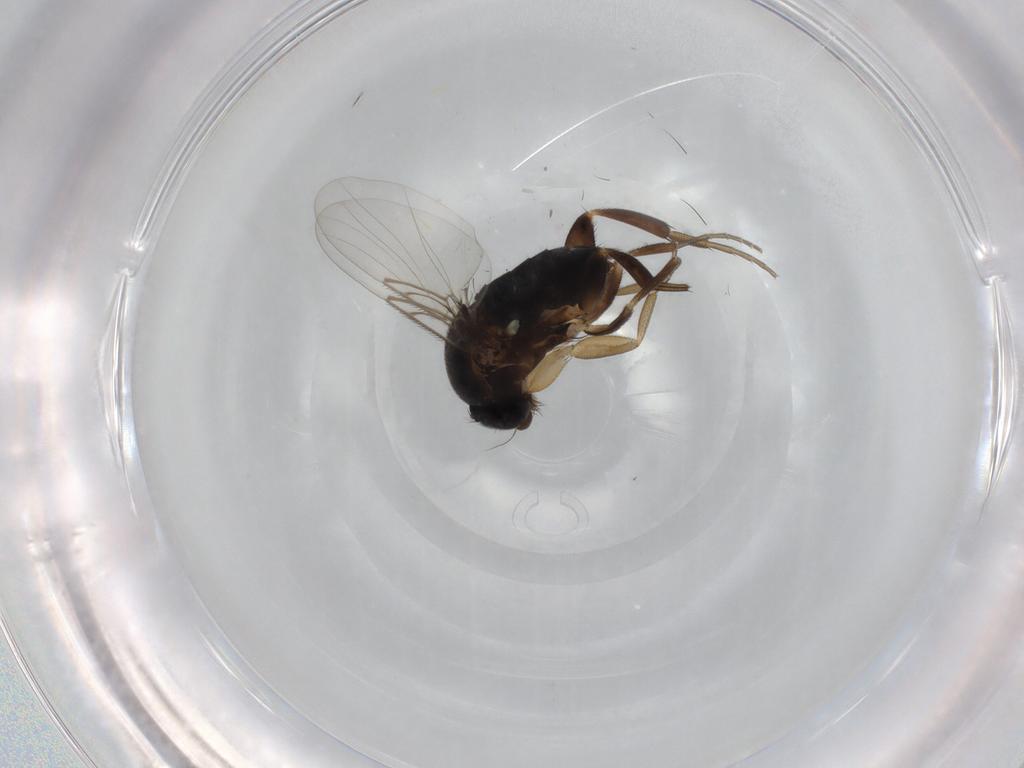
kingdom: Animalia
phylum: Arthropoda
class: Insecta
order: Diptera
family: Phoridae
